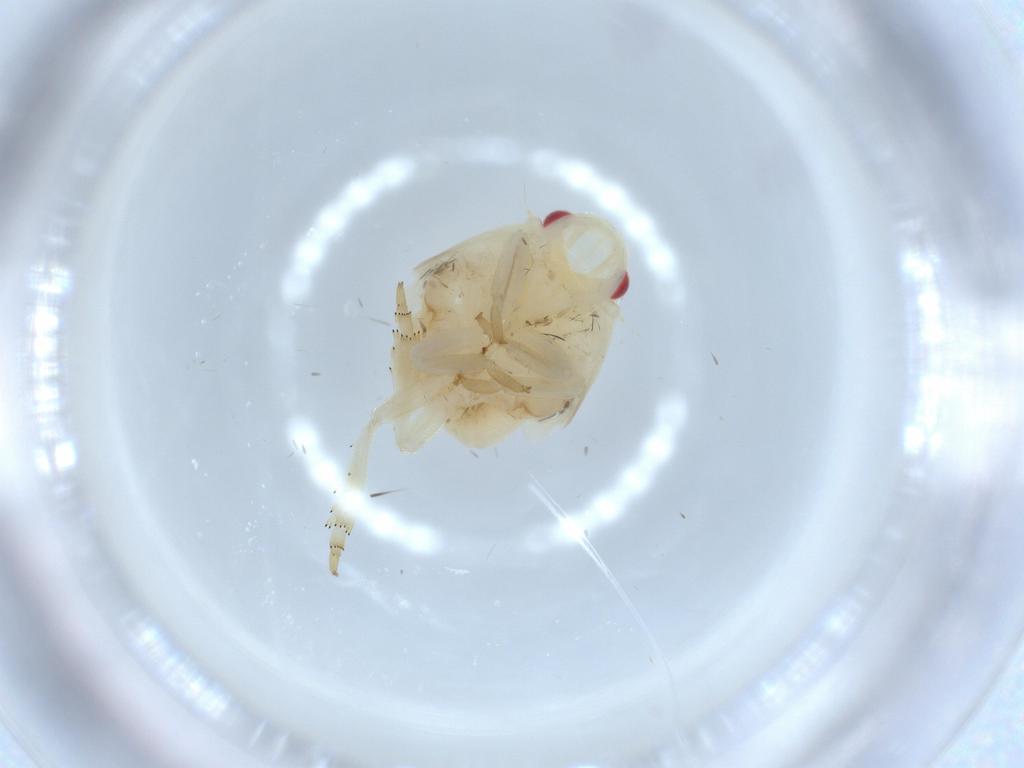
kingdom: Animalia
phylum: Arthropoda
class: Insecta
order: Hemiptera
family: Flatidae
